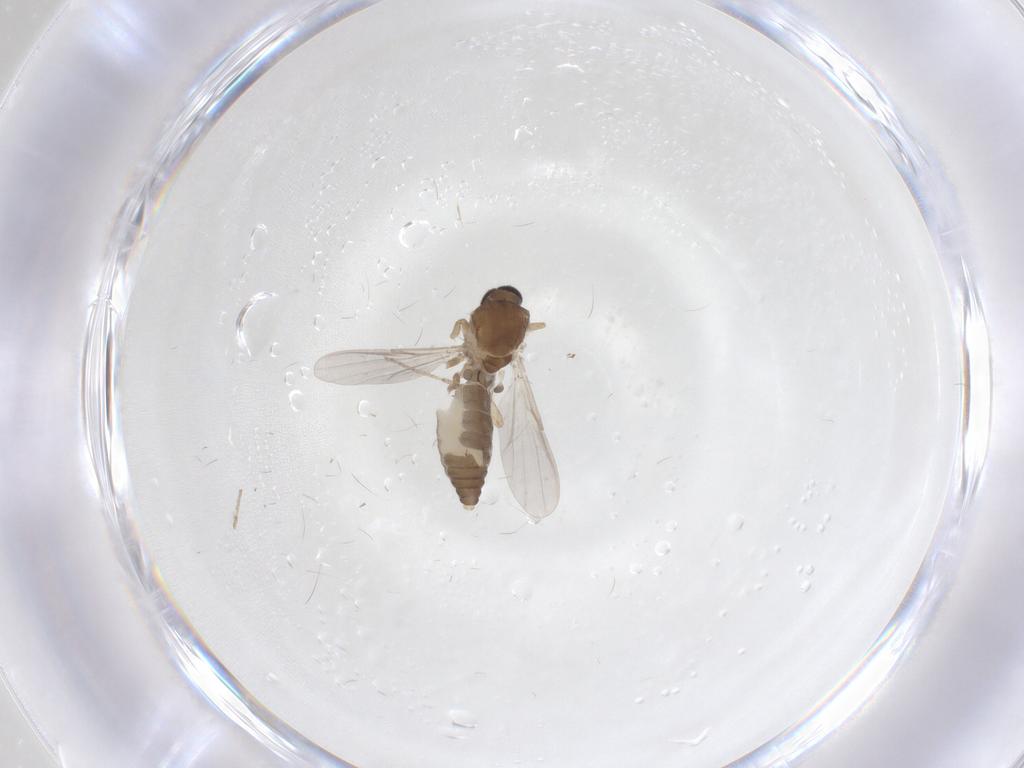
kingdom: Animalia
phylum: Arthropoda
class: Insecta
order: Diptera
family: Ceratopogonidae
